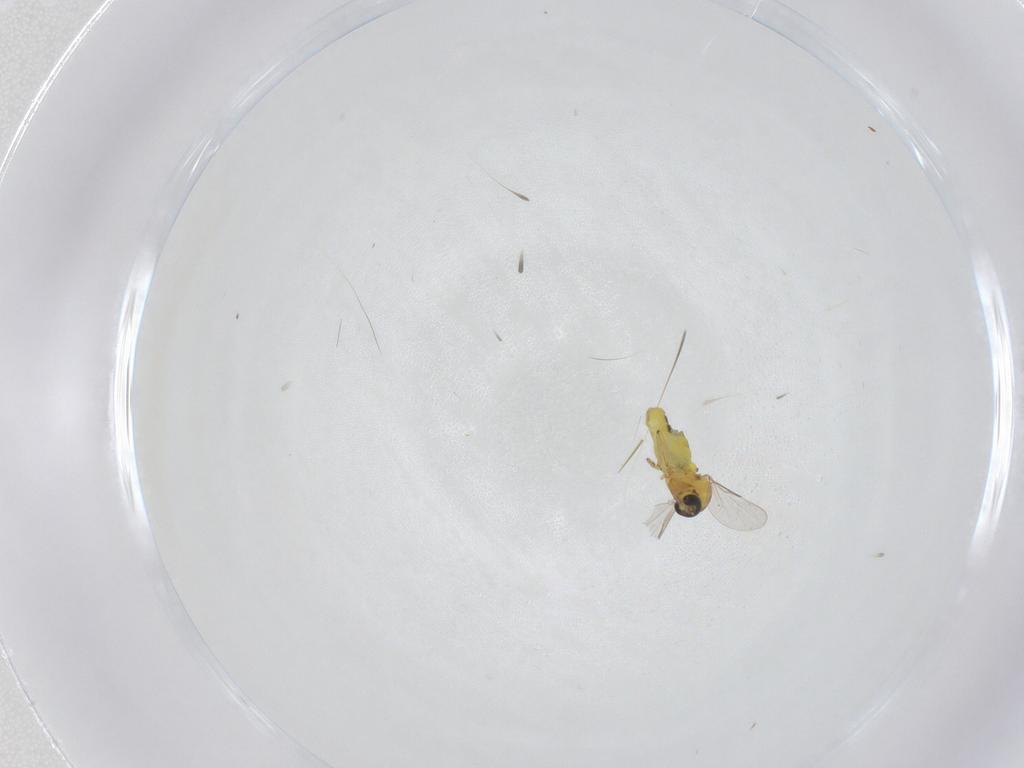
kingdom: Animalia
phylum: Arthropoda
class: Insecta
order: Diptera
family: Ceratopogonidae
